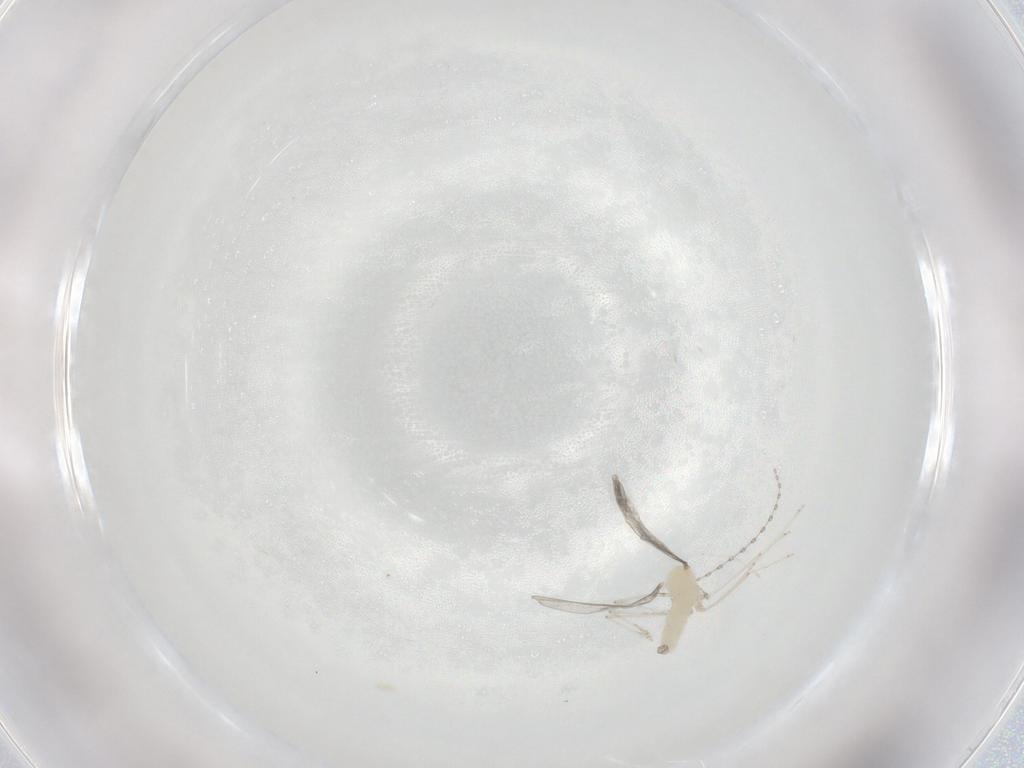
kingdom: Animalia
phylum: Arthropoda
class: Insecta
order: Diptera
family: Cecidomyiidae
